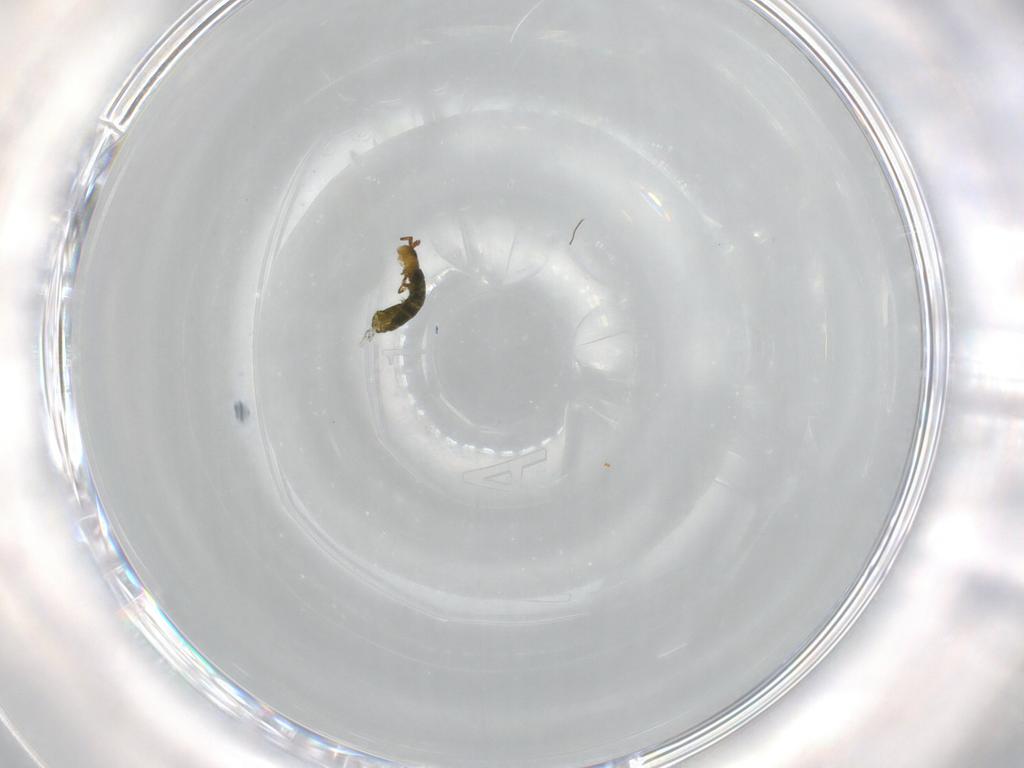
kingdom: Animalia
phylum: Arthropoda
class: Collembola
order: Entomobryomorpha
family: Isotomidae
